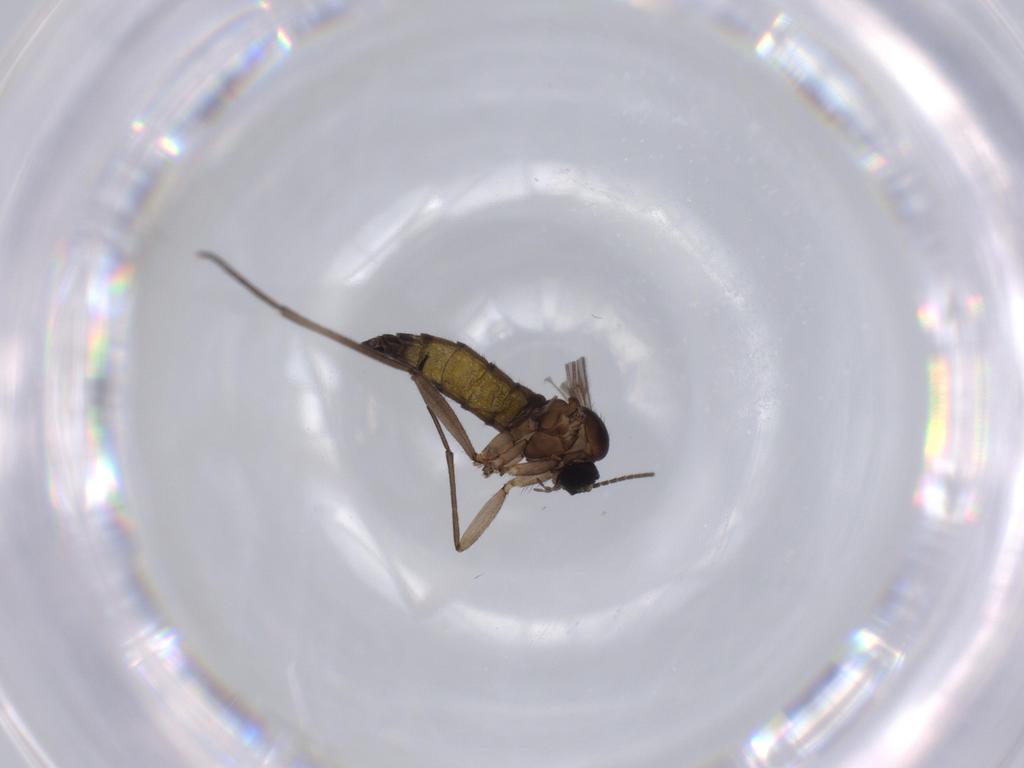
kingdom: Animalia
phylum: Arthropoda
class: Insecta
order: Diptera
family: Sciaridae
